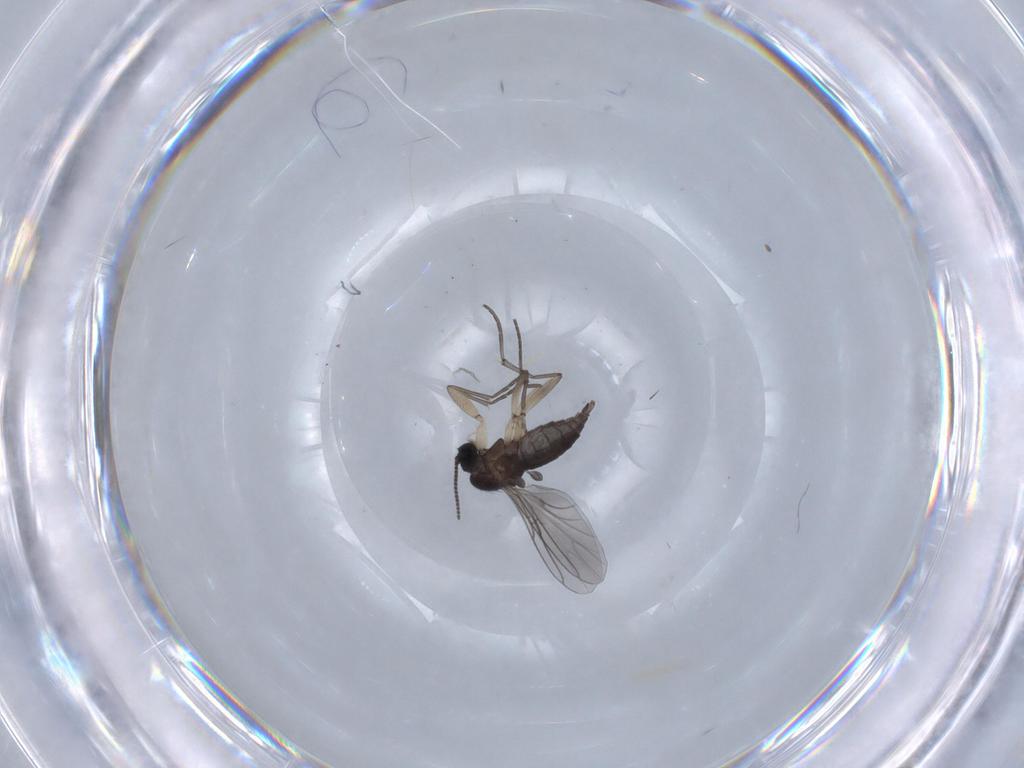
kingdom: Animalia
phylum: Arthropoda
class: Insecta
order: Diptera
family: Sciaridae
